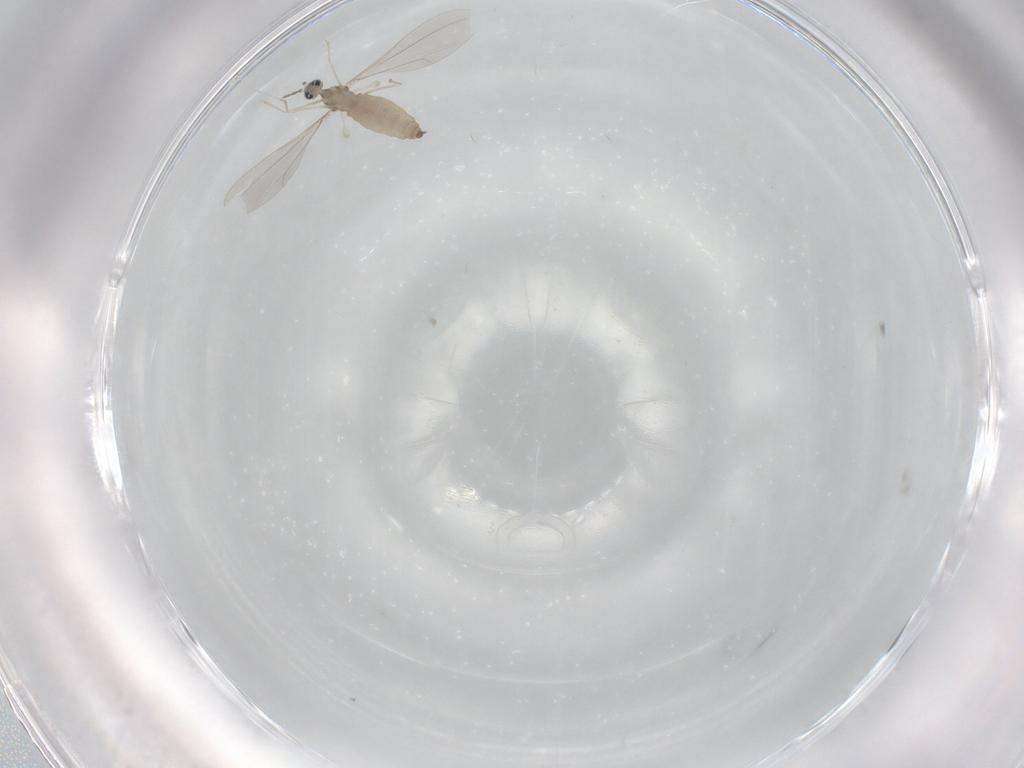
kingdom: Animalia
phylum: Arthropoda
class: Insecta
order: Diptera
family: Cecidomyiidae
